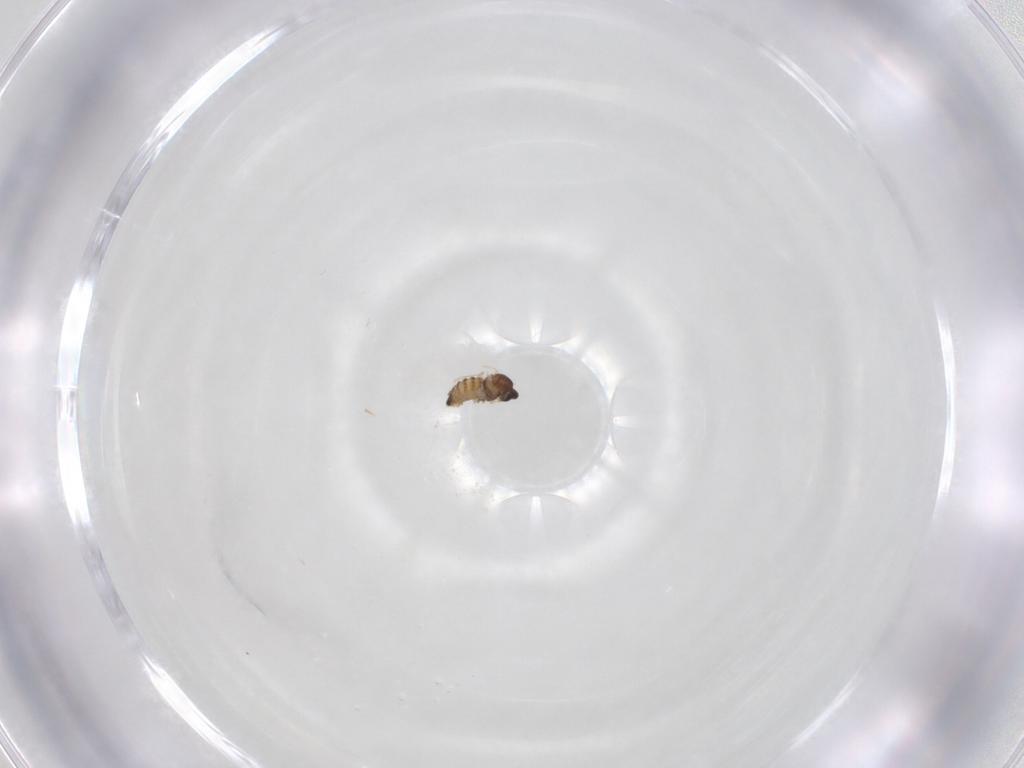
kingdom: Animalia
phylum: Arthropoda
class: Insecta
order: Diptera
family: Cecidomyiidae
